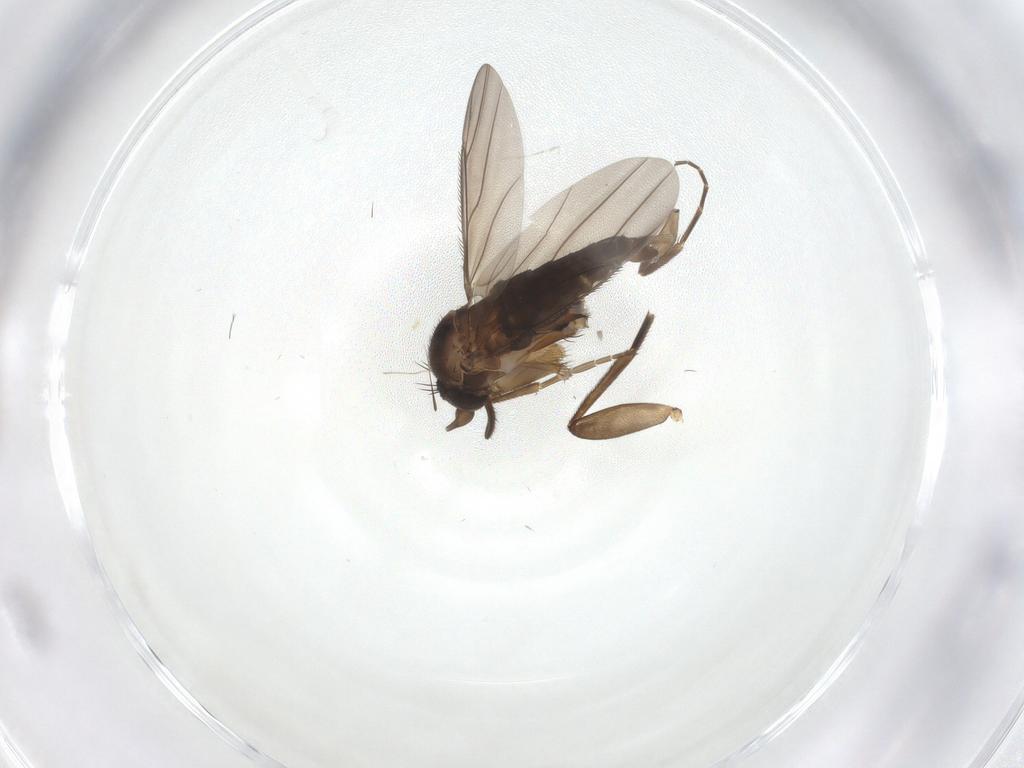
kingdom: Animalia
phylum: Arthropoda
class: Insecta
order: Diptera
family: Phoridae
